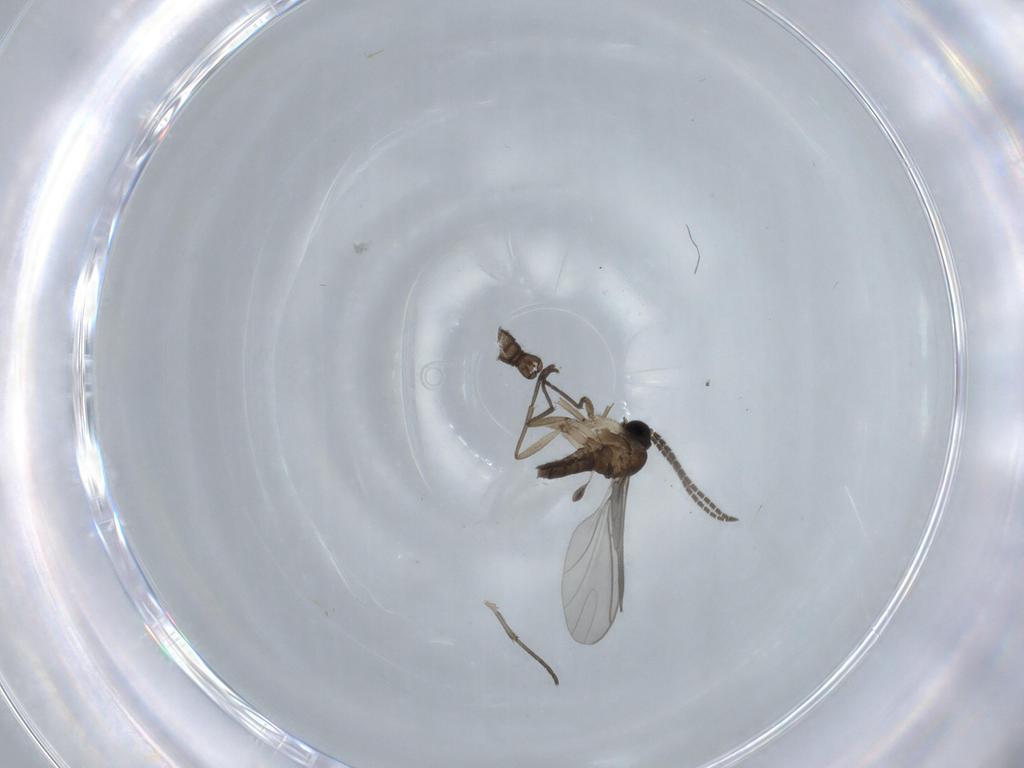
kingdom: Animalia
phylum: Arthropoda
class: Insecta
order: Diptera
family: Sciaridae
